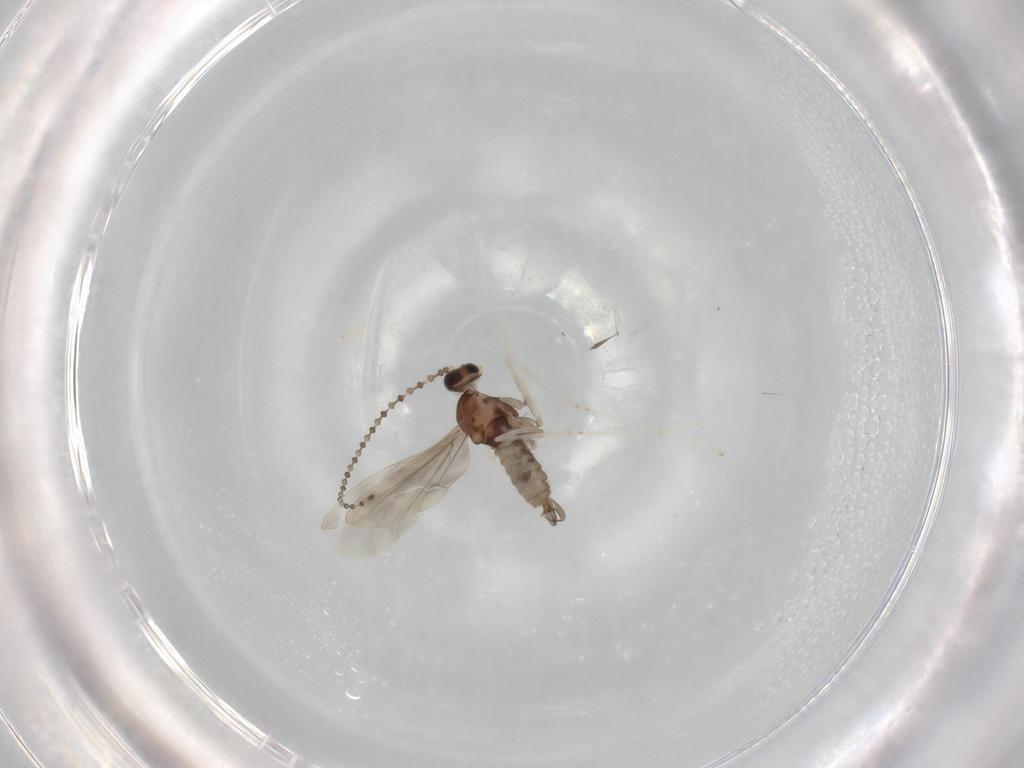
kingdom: Animalia
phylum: Arthropoda
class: Insecta
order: Diptera
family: Cecidomyiidae
